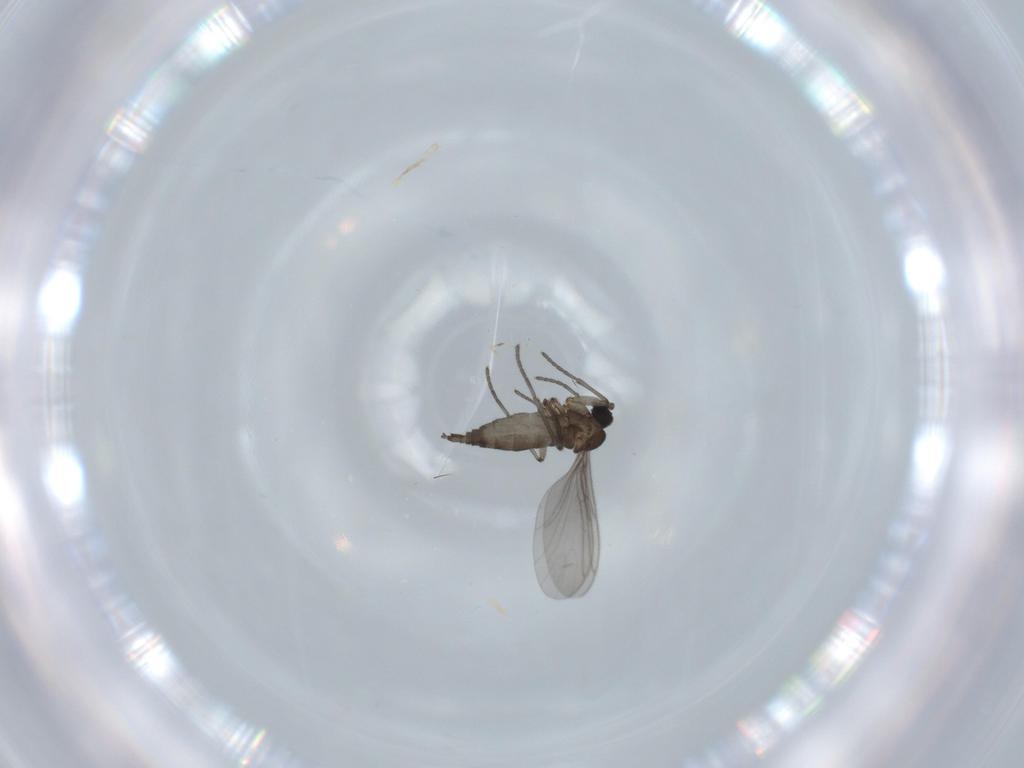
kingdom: Animalia
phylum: Arthropoda
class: Insecta
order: Diptera
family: Sciaridae
